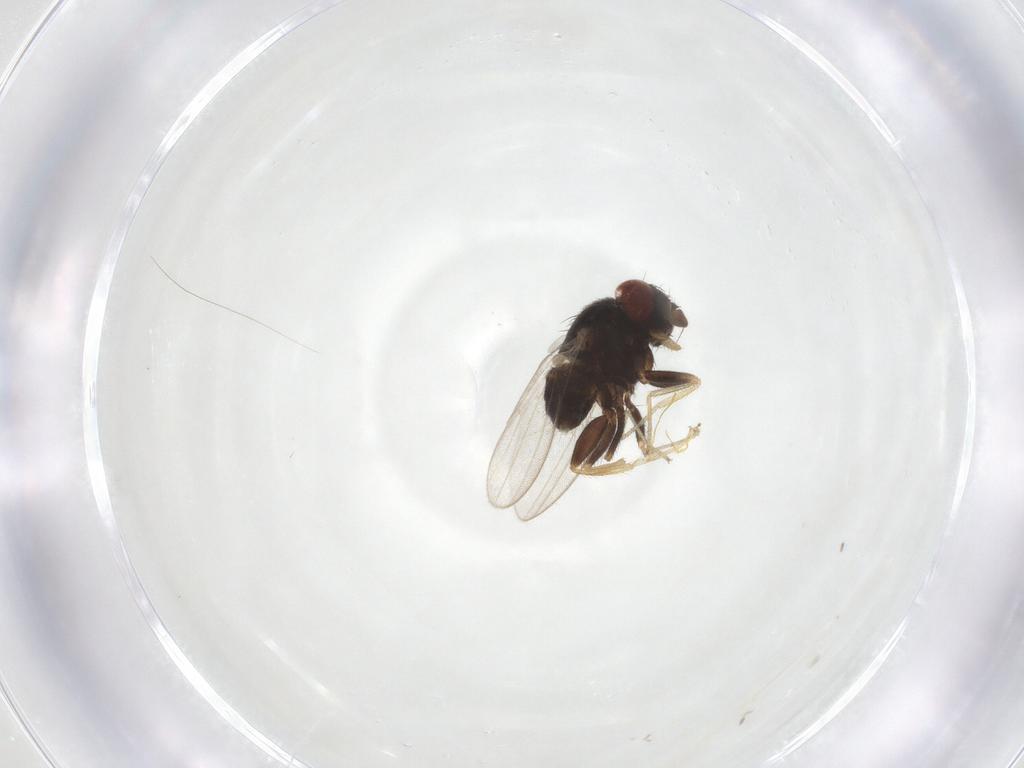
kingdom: Animalia
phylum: Arthropoda
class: Insecta
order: Diptera
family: Milichiidae
